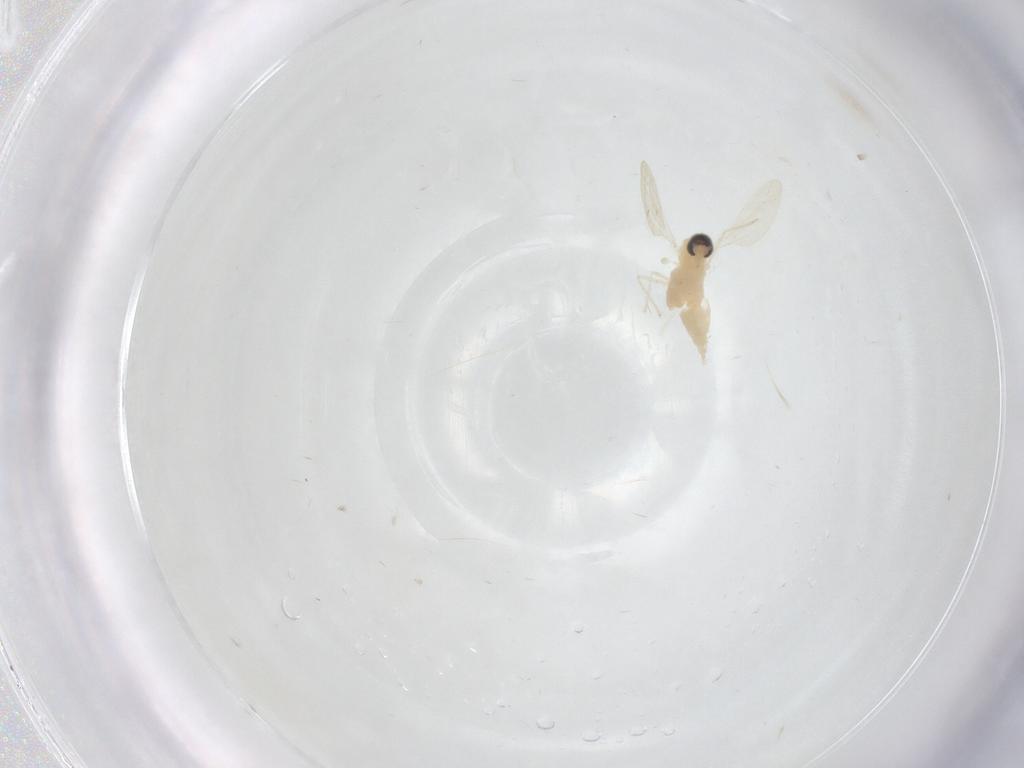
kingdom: Animalia
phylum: Arthropoda
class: Insecta
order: Diptera
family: Cecidomyiidae
